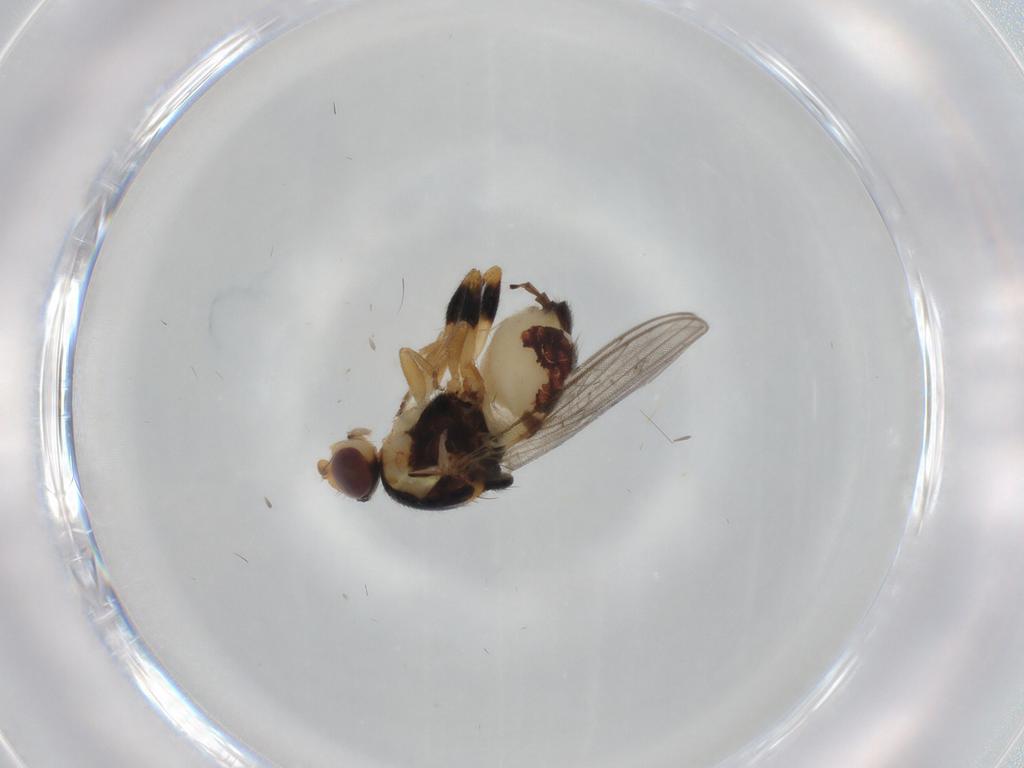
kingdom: Animalia
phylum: Arthropoda
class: Insecta
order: Diptera
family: Chloropidae
